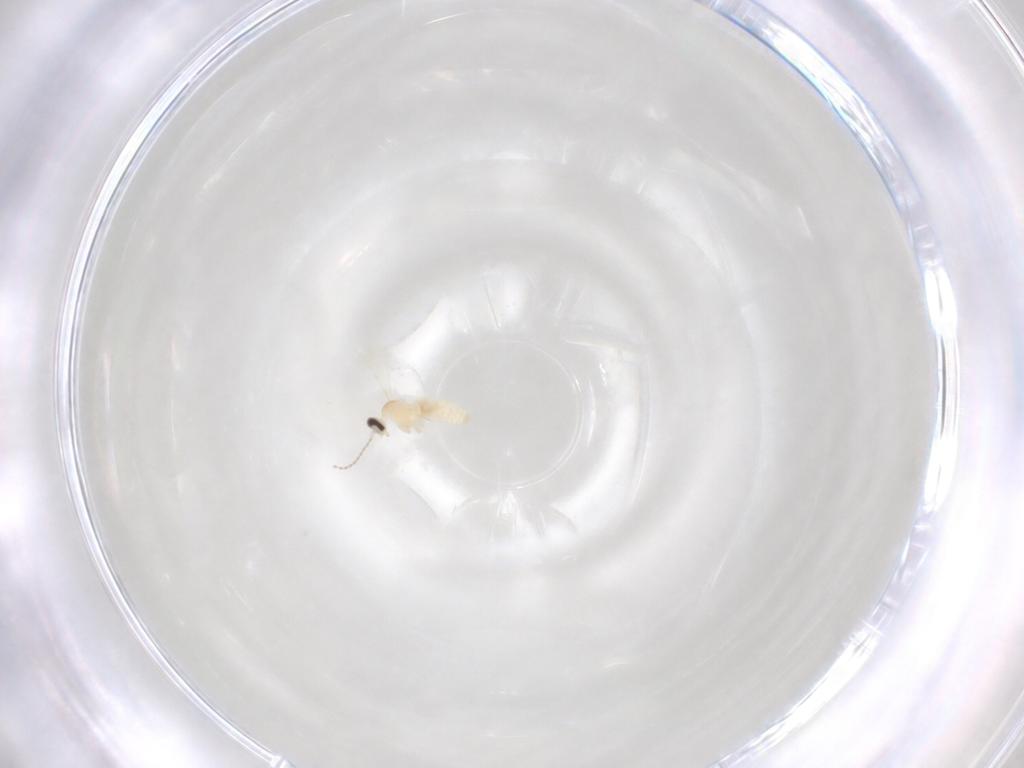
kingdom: Animalia
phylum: Arthropoda
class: Insecta
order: Diptera
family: Cecidomyiidae
